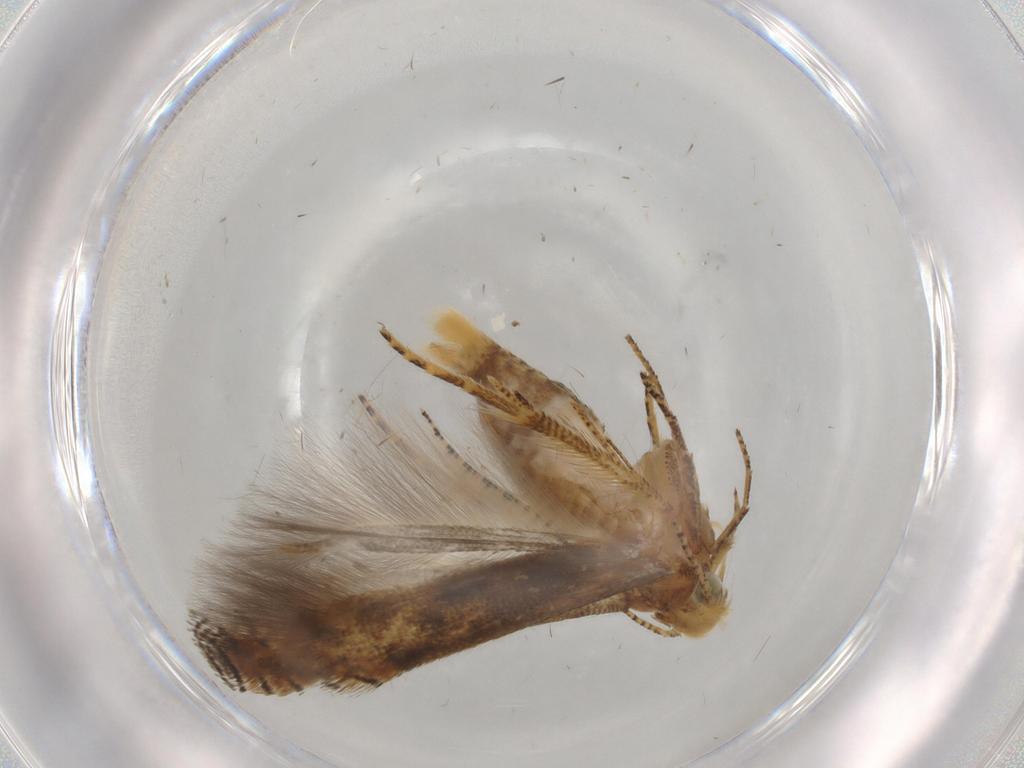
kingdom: Animalia
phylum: Arthropoda
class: Insecta
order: Lepidoptera
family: Gelechiidae
